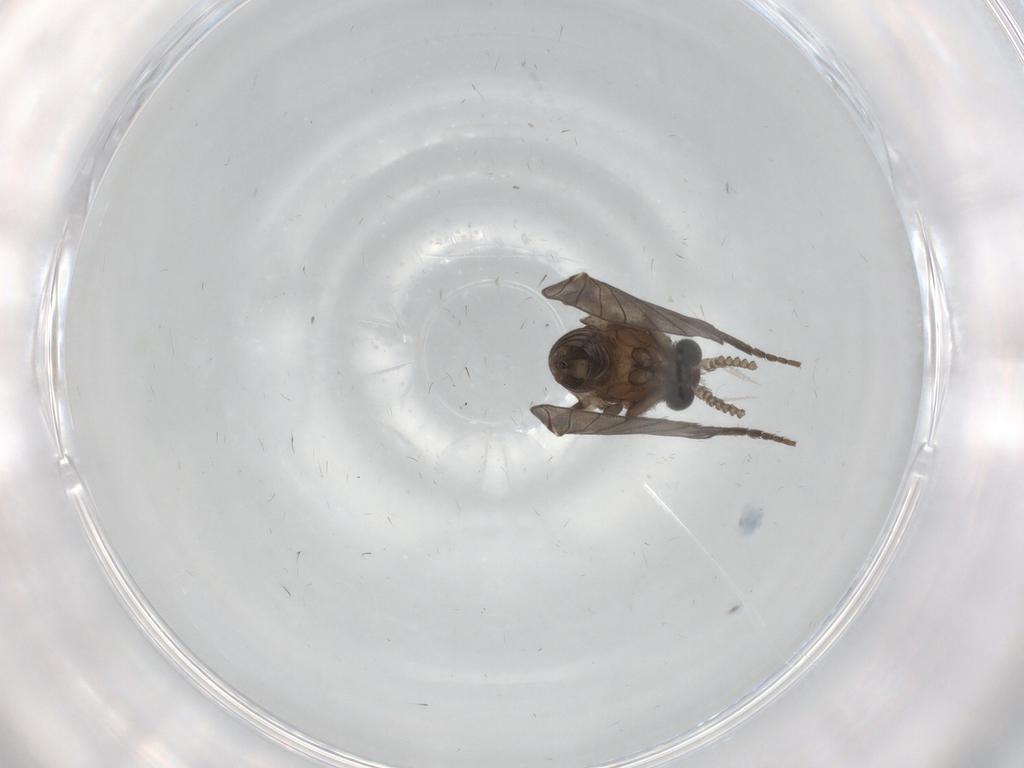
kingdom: Animalia
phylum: Arthropoda
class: Insecta
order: Diptera
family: Psychodidae
